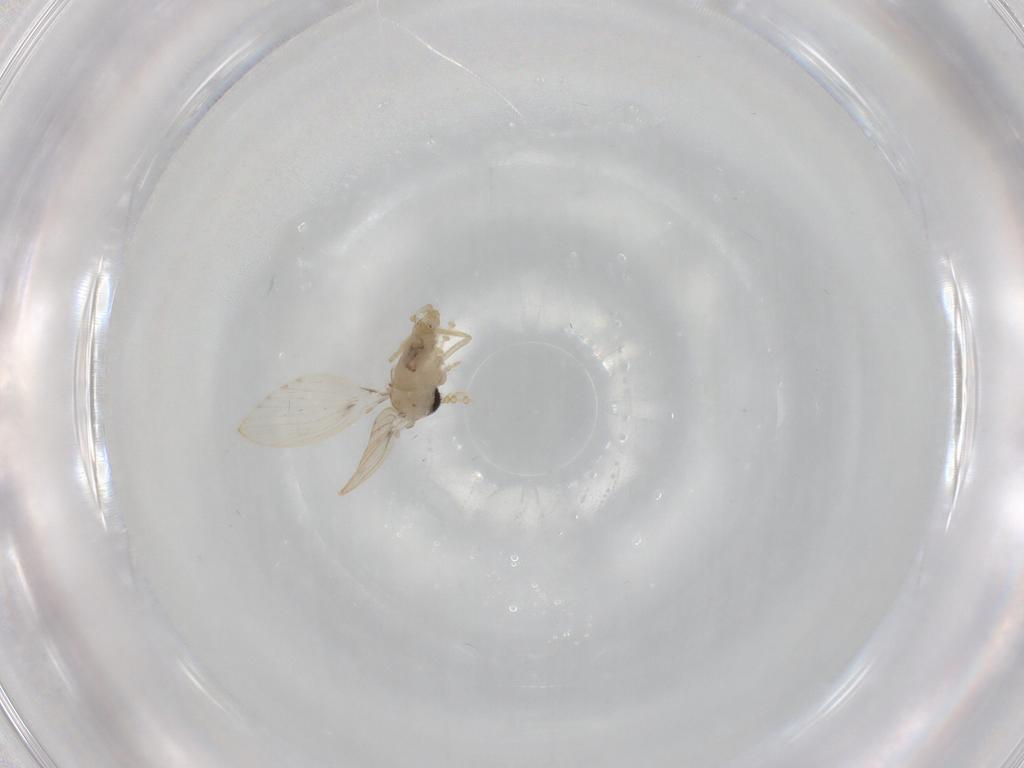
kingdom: Animalia
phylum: Arthropoda
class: Insecta
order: Diptera
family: Psychodidae
